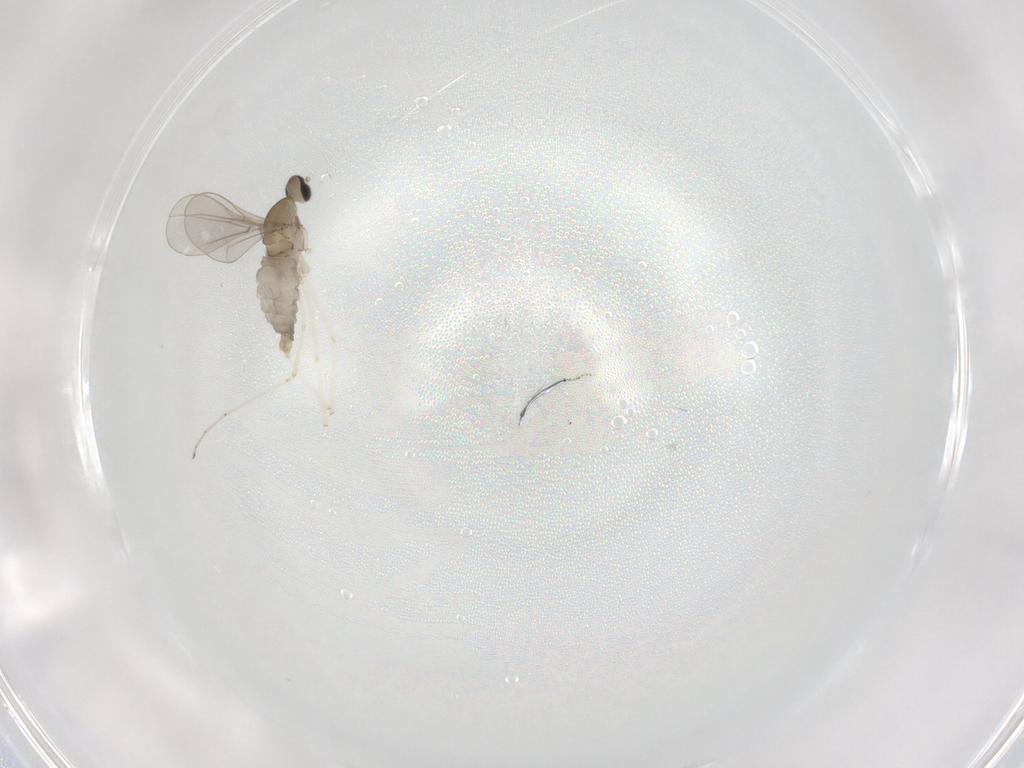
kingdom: Animalia
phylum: Arthropoda
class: Insecta
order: Diptera
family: Cecidomyiidae
